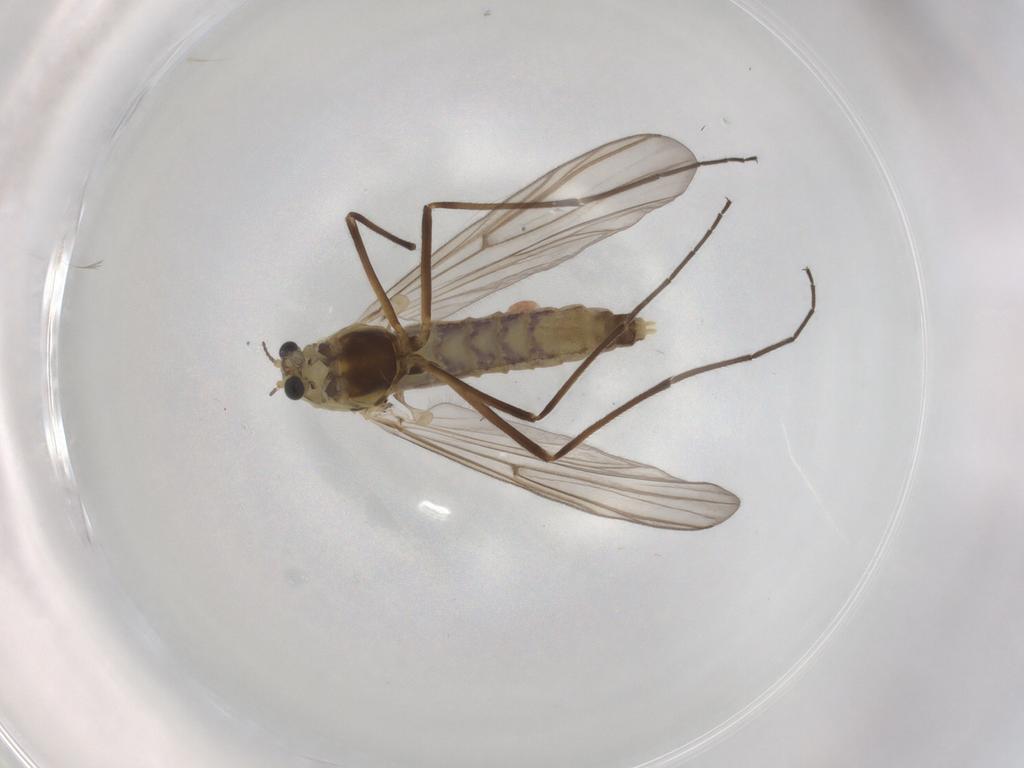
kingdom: Animalia
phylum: Arthropoda
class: Insecta
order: Diptera
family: Chironomidae
